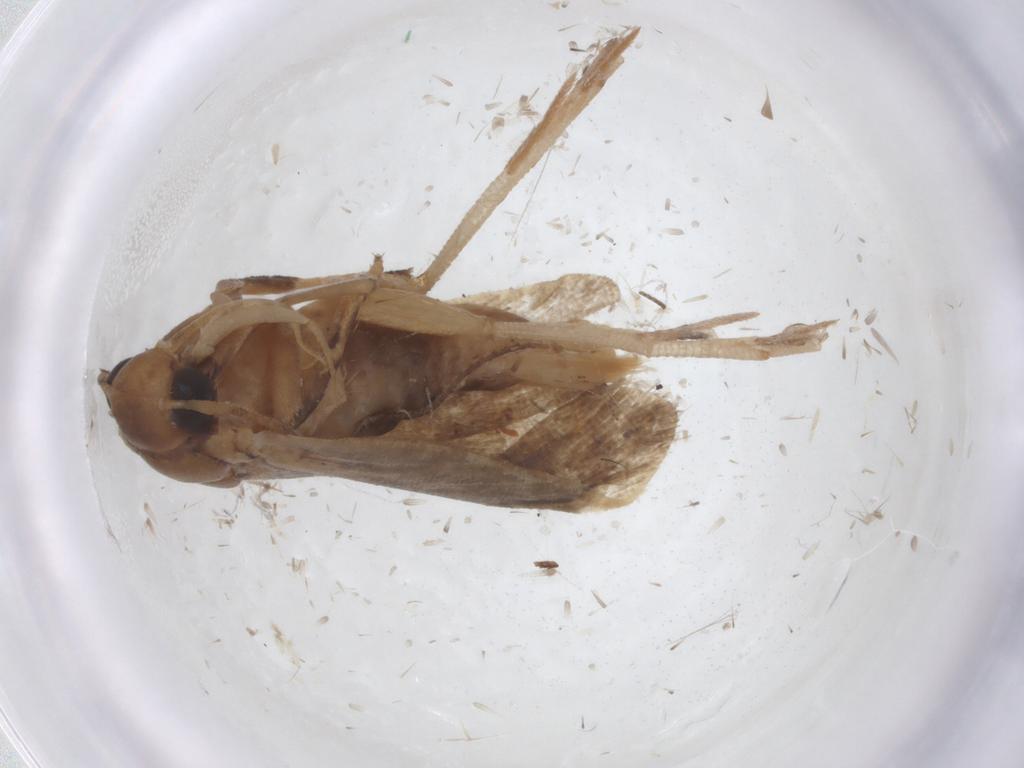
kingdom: Animalia
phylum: Arthropoda
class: Insecta
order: Lepidoptera
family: Gelechiidae
